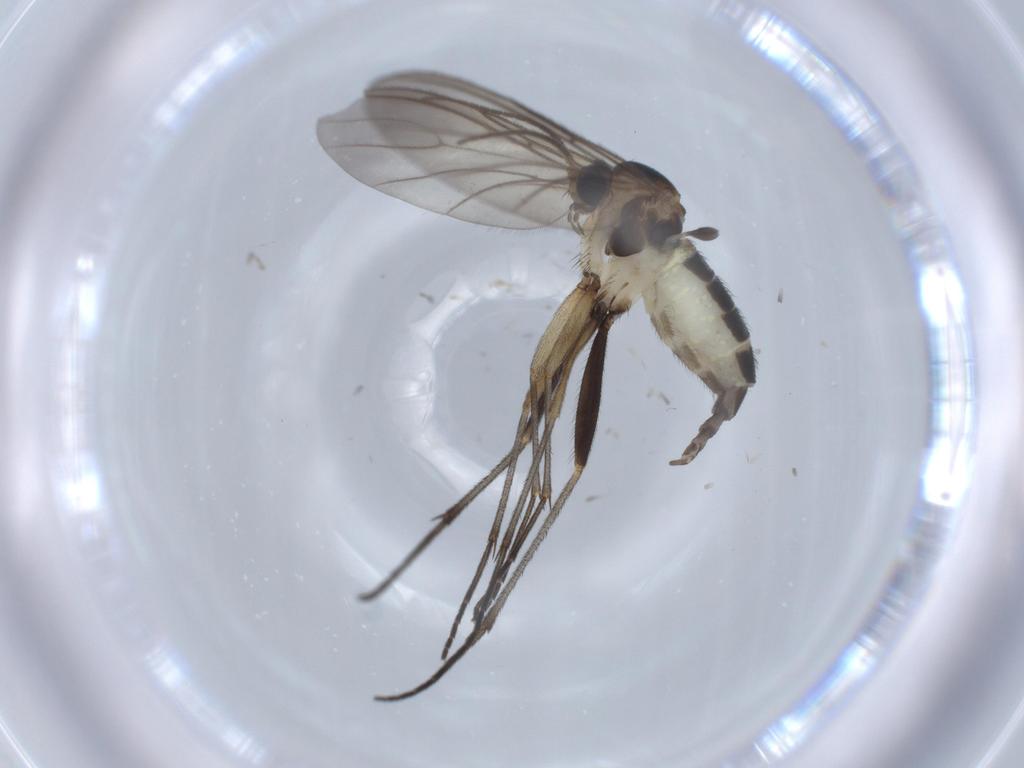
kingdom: Animalia
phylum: Arthropoda
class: Insecta
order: Diptera
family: Sciaridae
